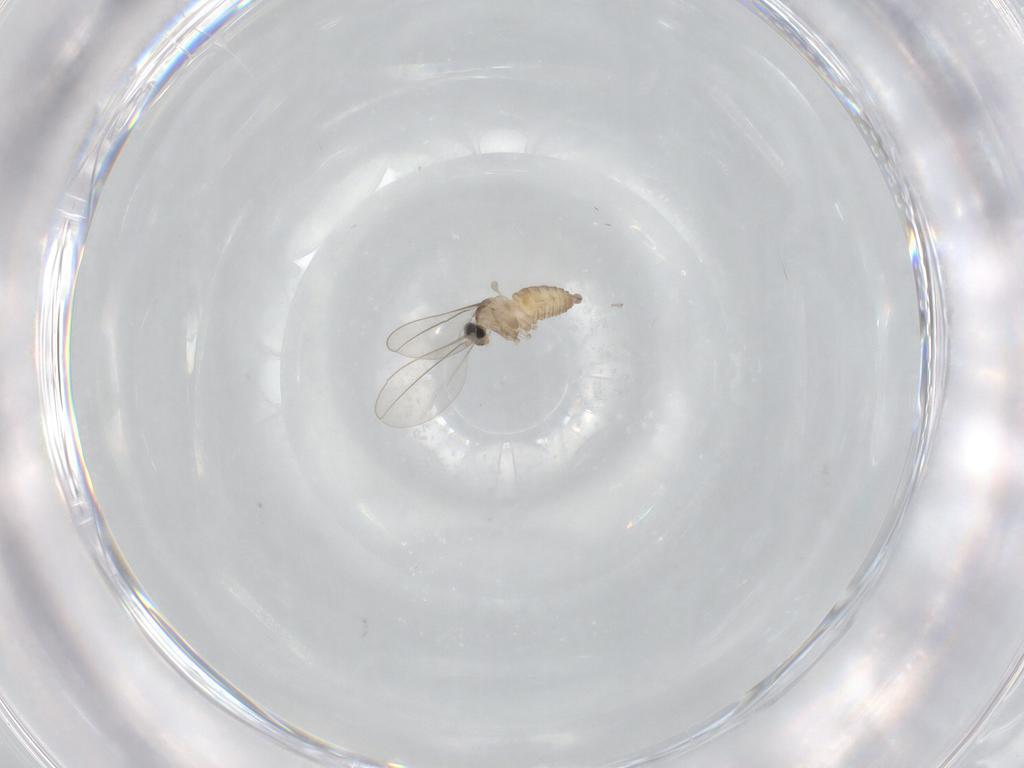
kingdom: Animalia
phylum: Arthropoda
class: Insecta
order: Diptera
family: Cecidomyiidae
